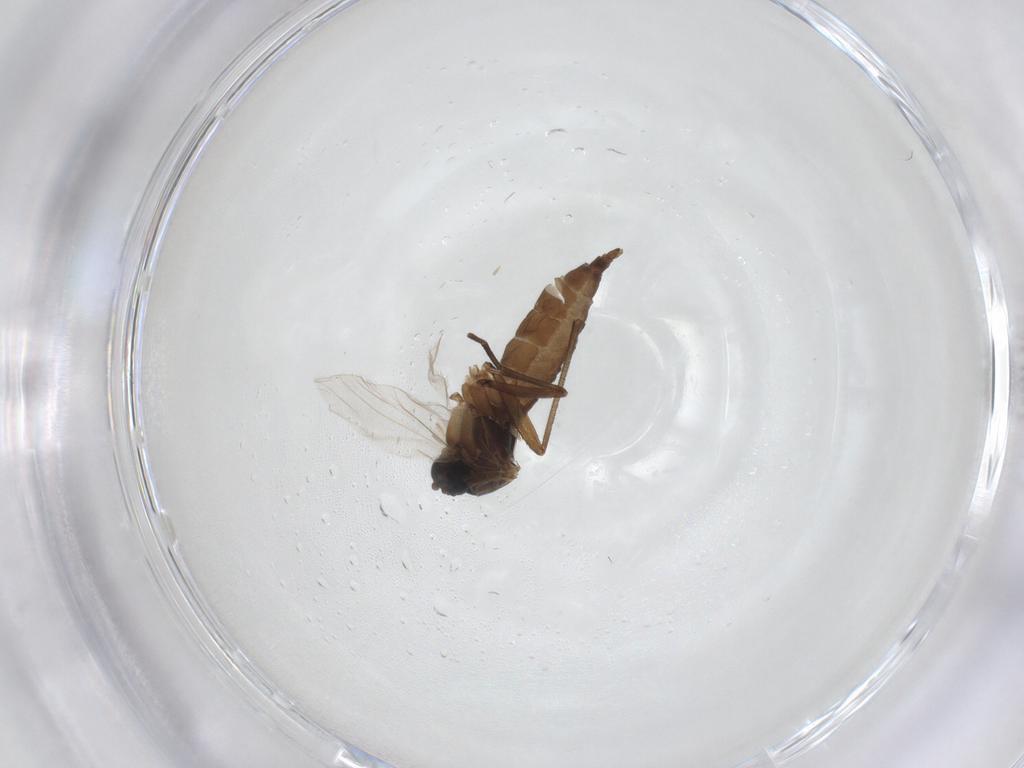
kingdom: Animalia
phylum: Arthropoda
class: Insecta
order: Diptera
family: Sciaridae
